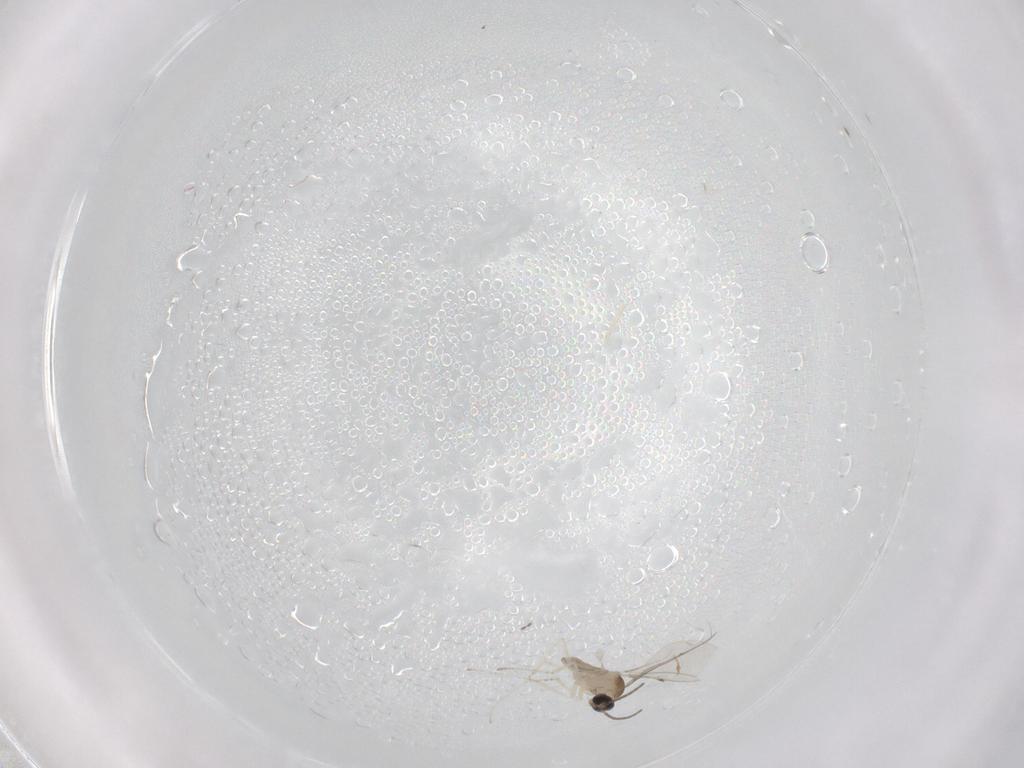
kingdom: Animalia
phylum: Arthropoda
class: Insecta
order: Diptera
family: Cecidomyiidae
